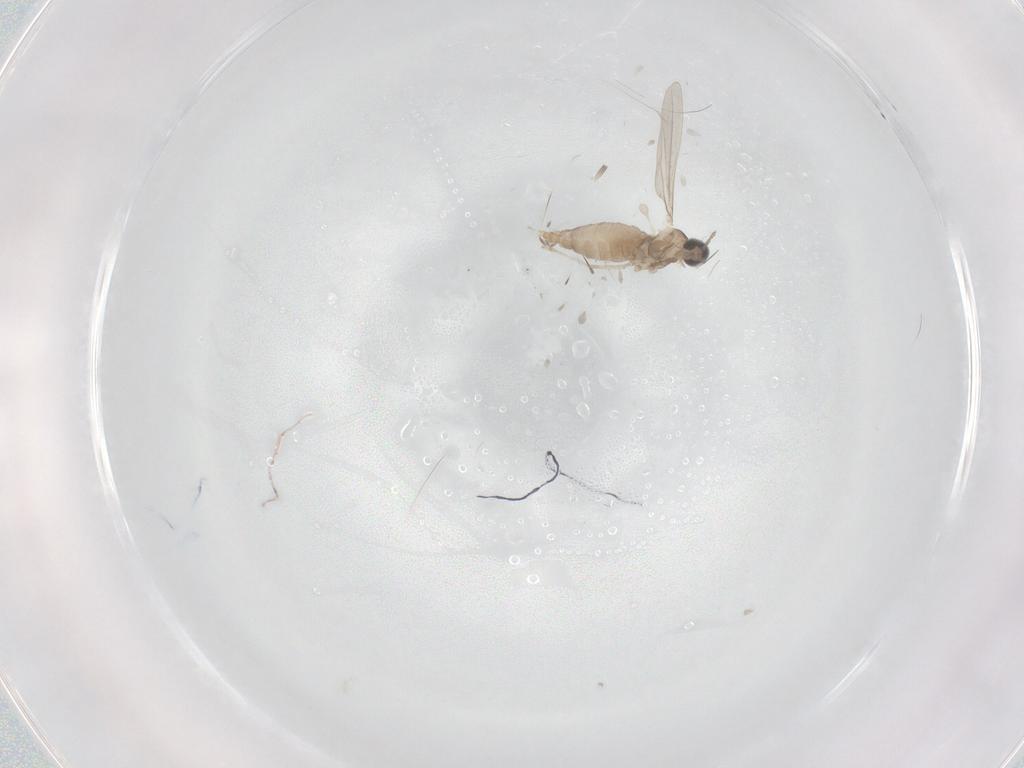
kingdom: Animalia
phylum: Arthropoda
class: Insecta
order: Diptera
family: Cecidomyiidae
